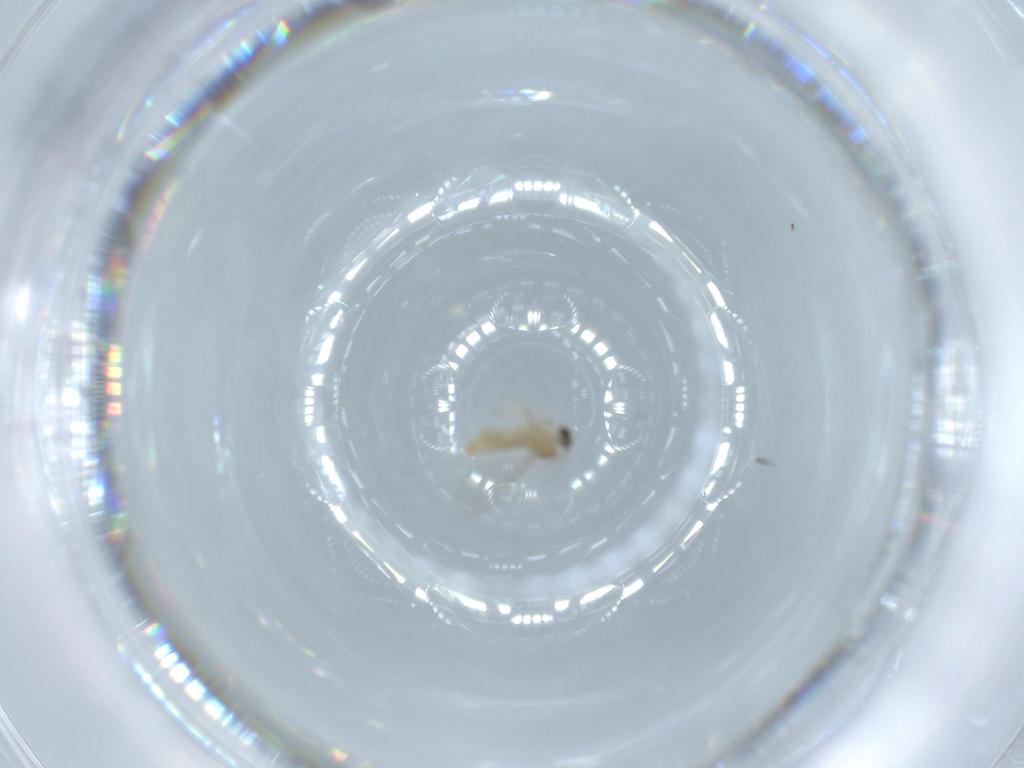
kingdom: Animalia
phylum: Arthropoda
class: Insecta
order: Diptera
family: Cecidomyiidae
